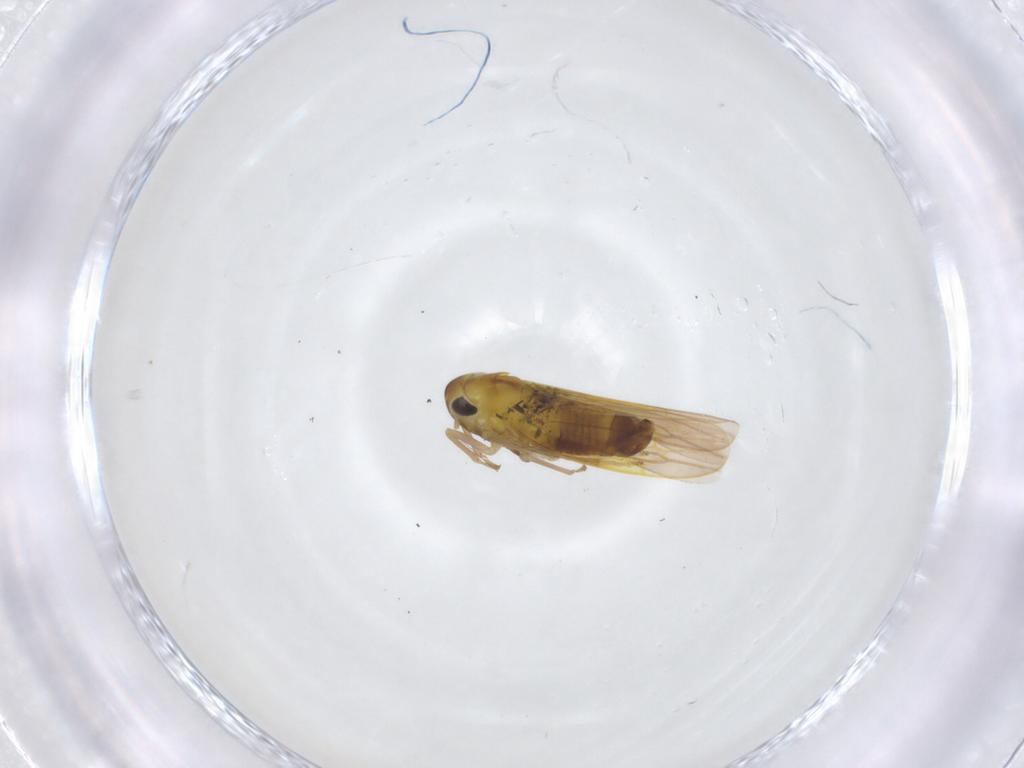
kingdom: Animalia
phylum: Arthropoda
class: Insecta
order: Hemiptera
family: Cicadellidae
